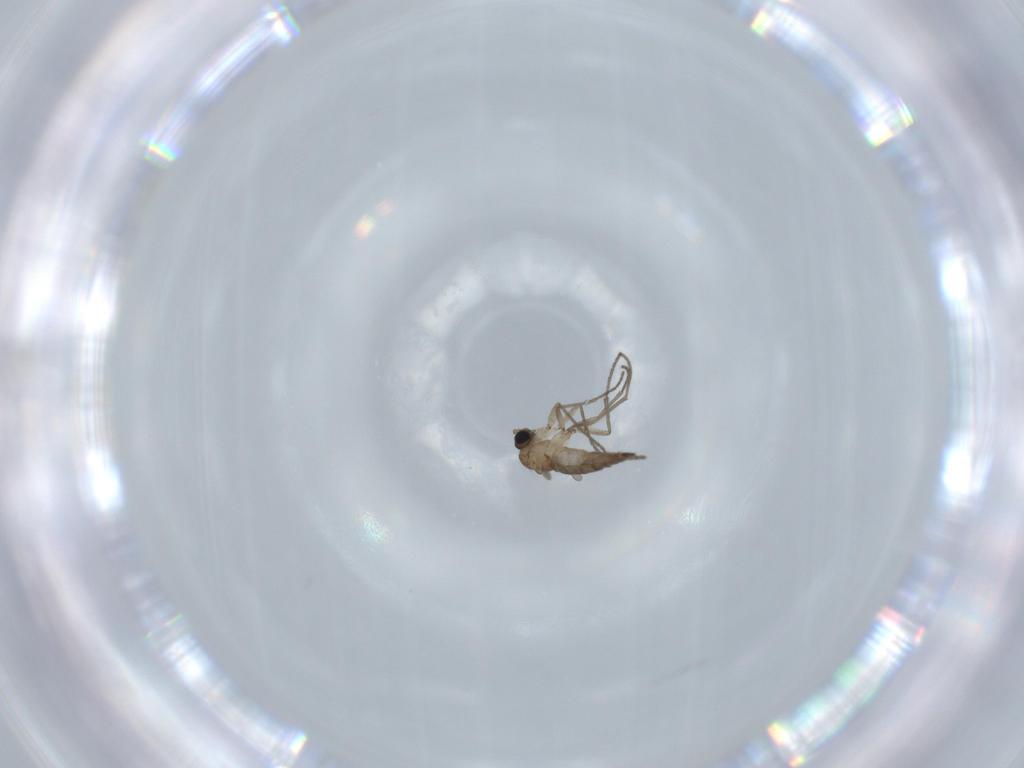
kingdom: Animalia
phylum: Arthropoda
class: Insecta
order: Diptera
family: Sciaridae
